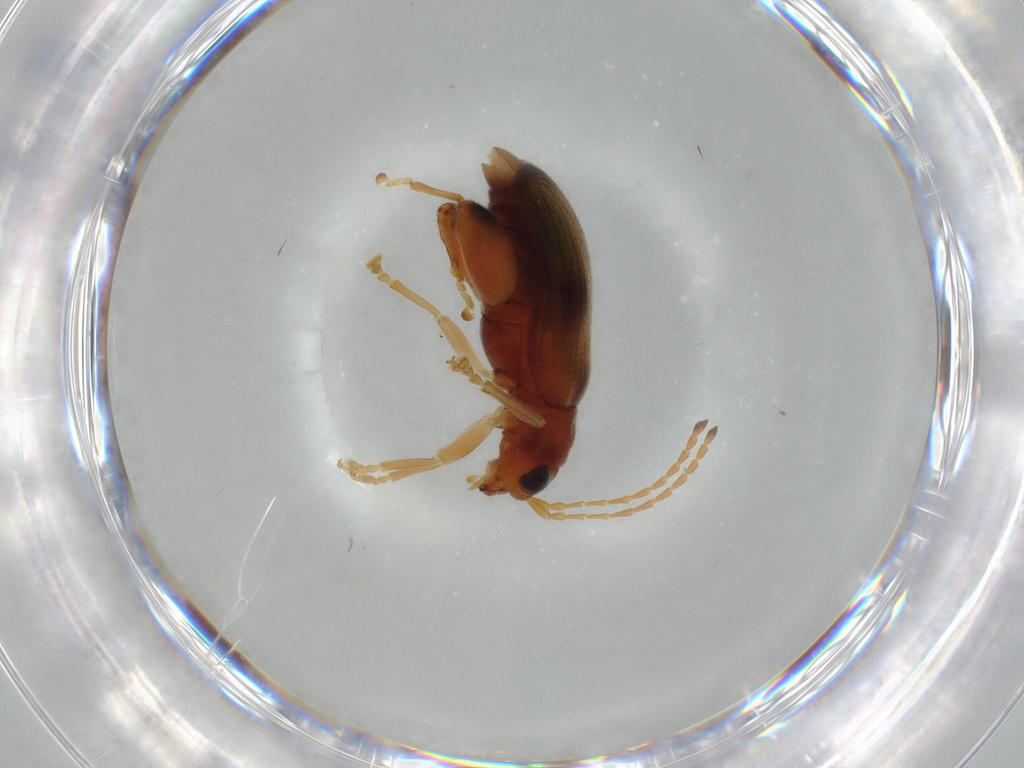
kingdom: Animalia
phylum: Arthropoda
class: Insecta
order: Coleoptera
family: Chrysomelidae
